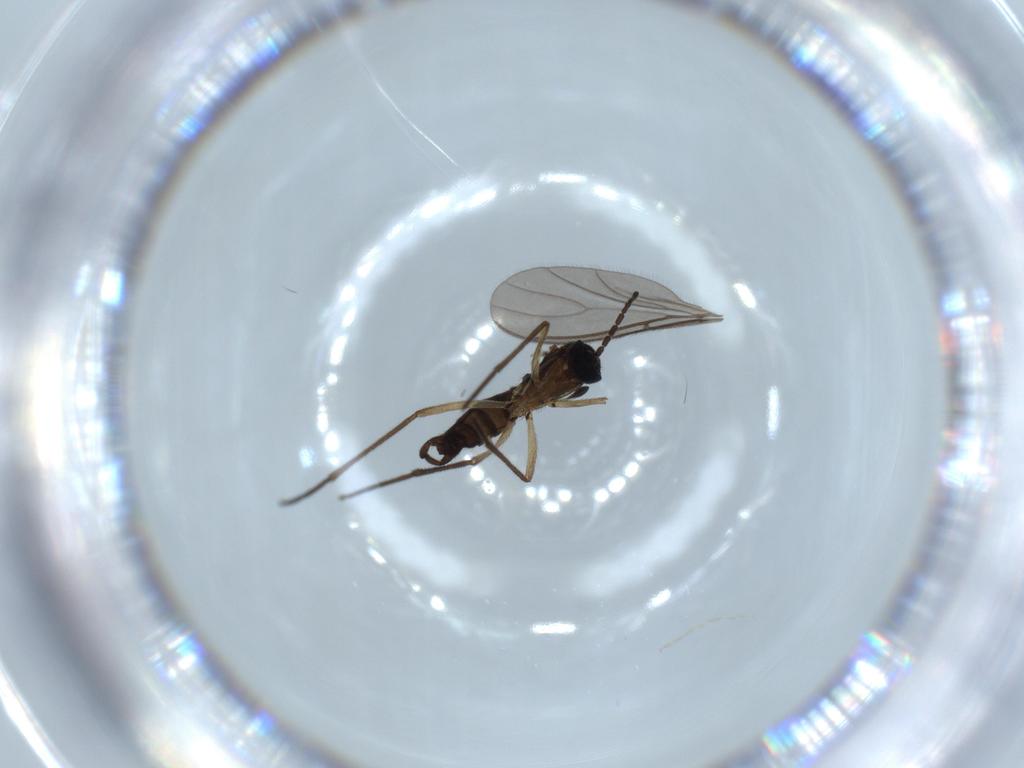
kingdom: Animalia
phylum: Arthropoda
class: Insecta
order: Diptera
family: Sciaridae
